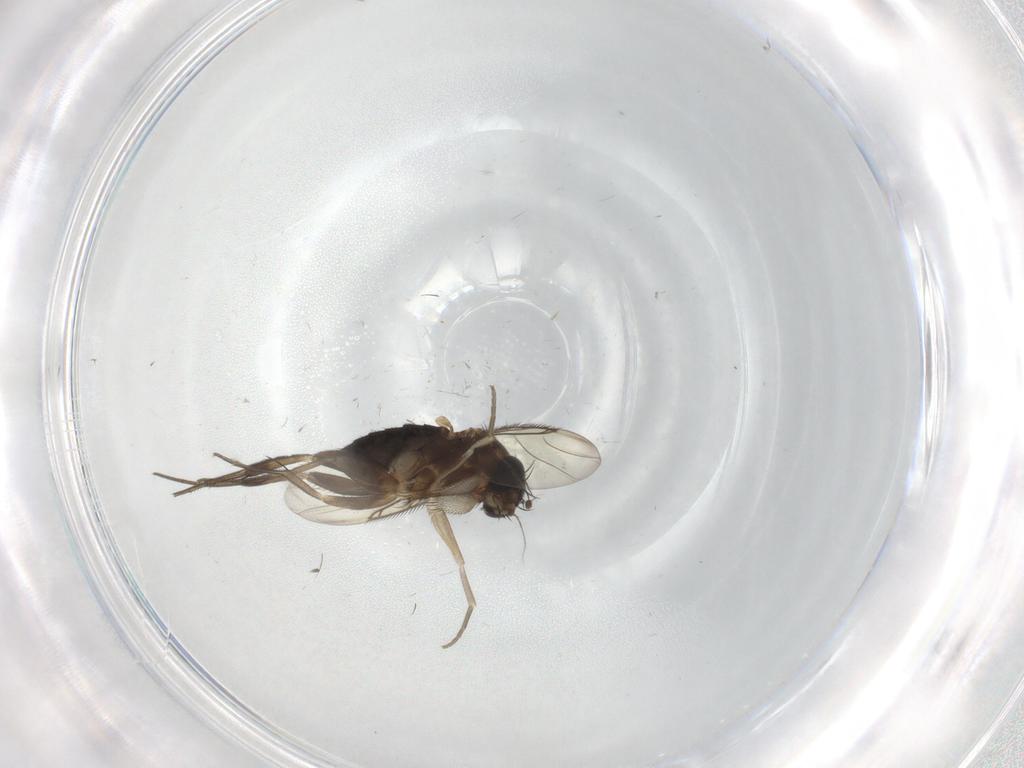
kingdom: Animalia
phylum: Arthropoda
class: Insecta
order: Diptera
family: Phoridae
